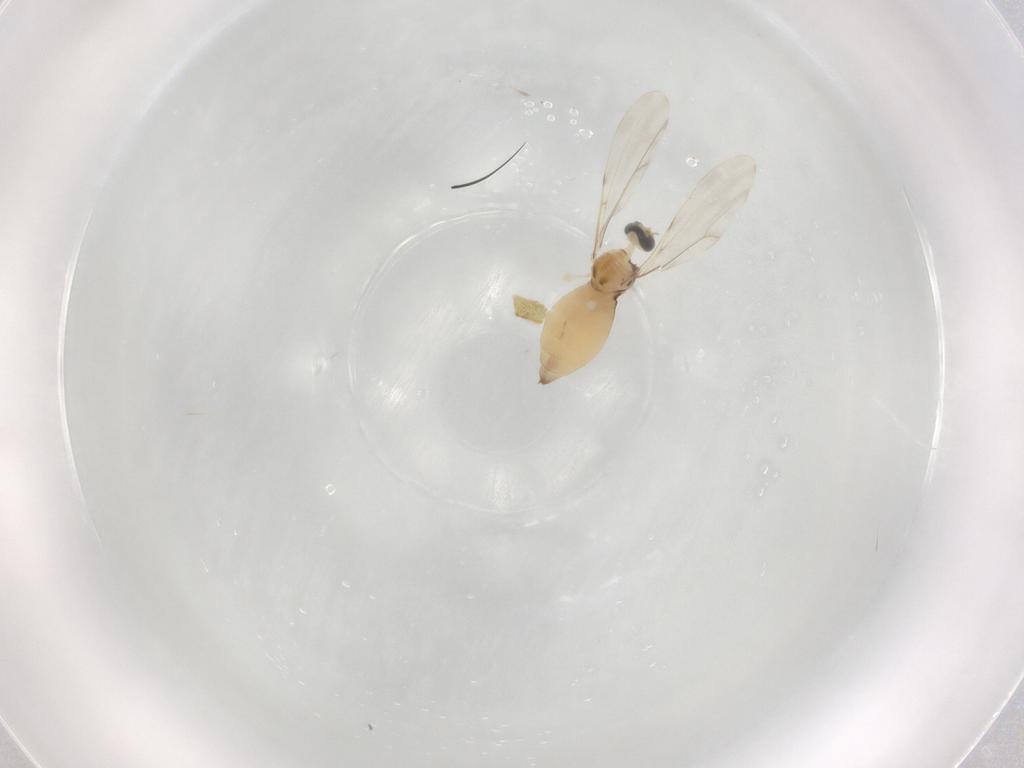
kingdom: Animalia
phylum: Arthropoda
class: Insecta
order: Diptera
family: Cecidomyiidae
